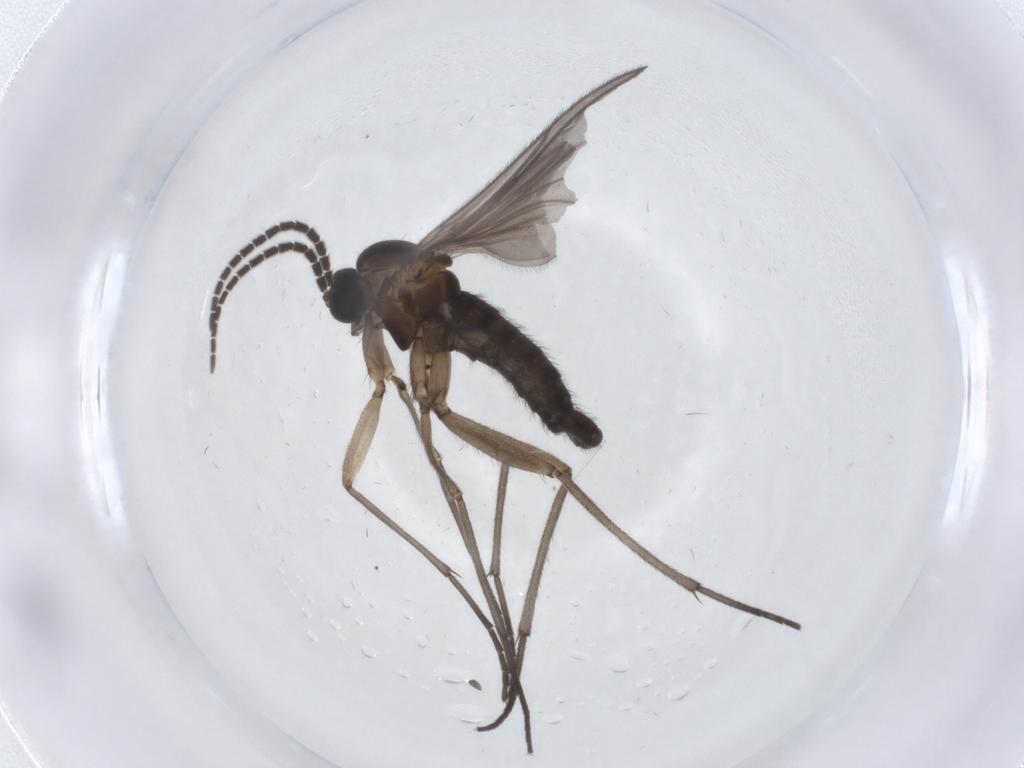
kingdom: Animalia
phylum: Arthropoda
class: Insecta
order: Diptera
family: Sciaridae
